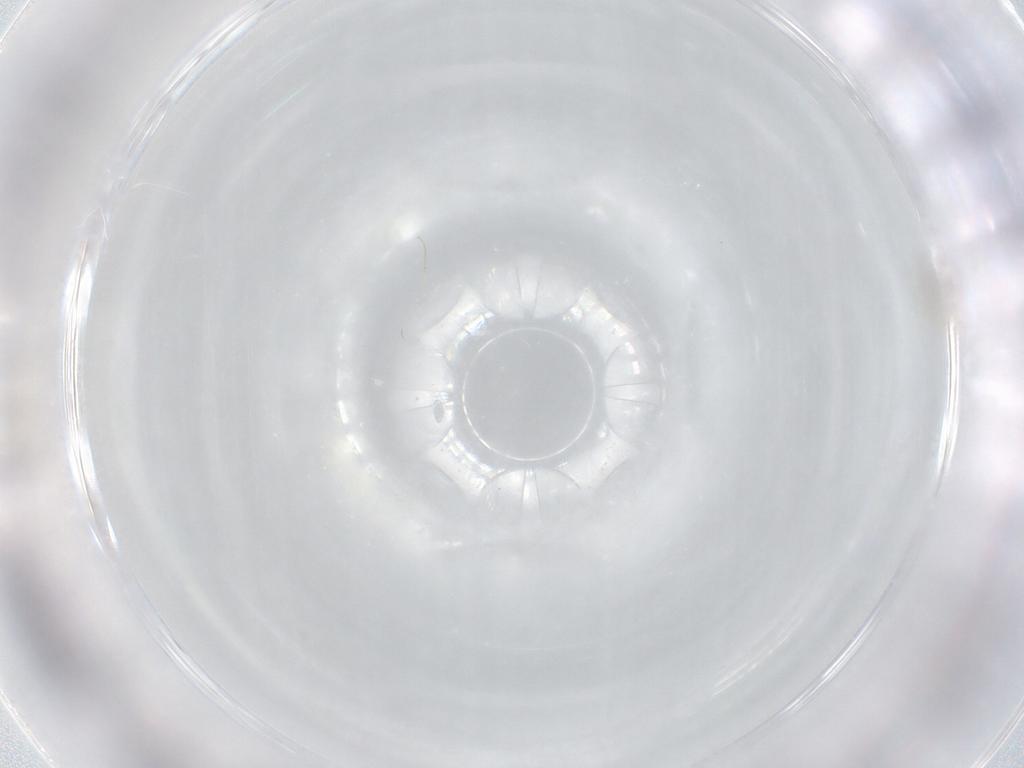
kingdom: Animalia
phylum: Arthropoda
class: Insecta
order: Diptera
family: Cecidomyiidae
